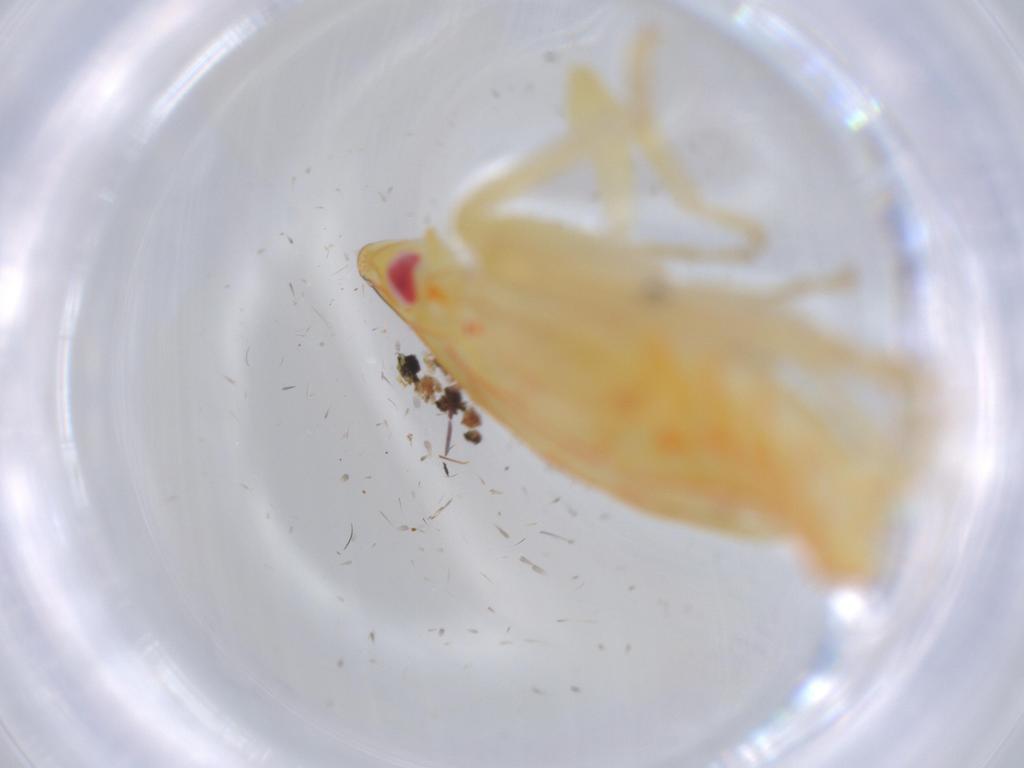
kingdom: Animalia
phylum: Arthropoda
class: Insecta
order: Hemiptera
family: Tropiduchidae
